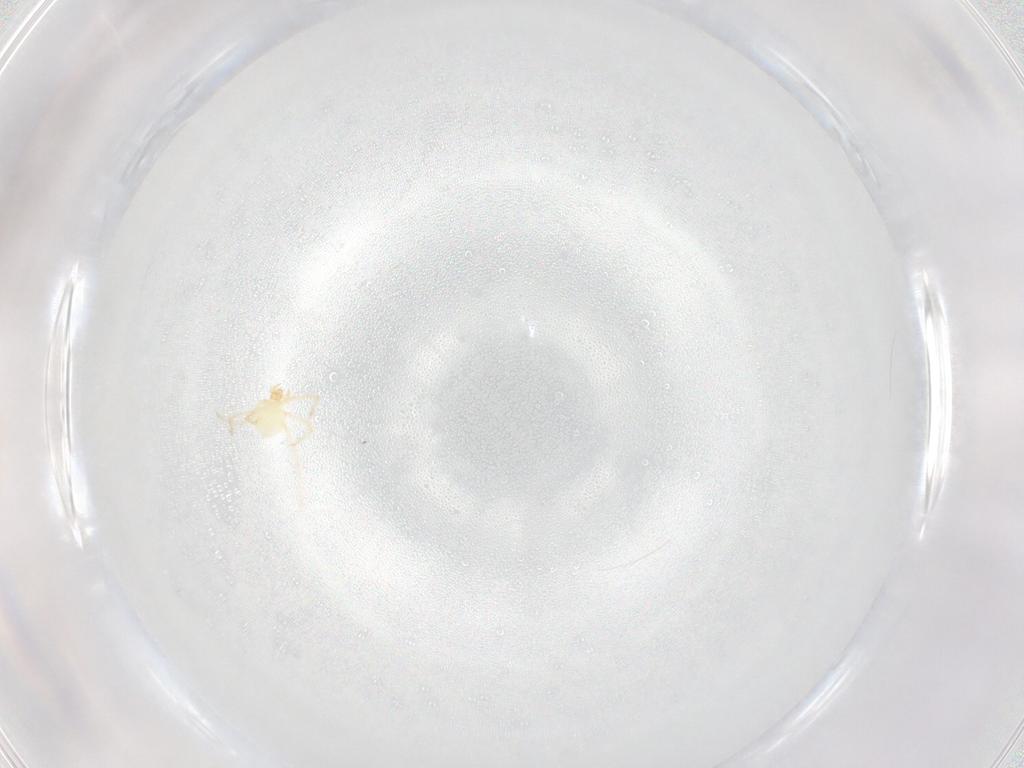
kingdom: Animalia
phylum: Arthropoda
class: Arachnida
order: Trombidiformes
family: Erythraeidae
